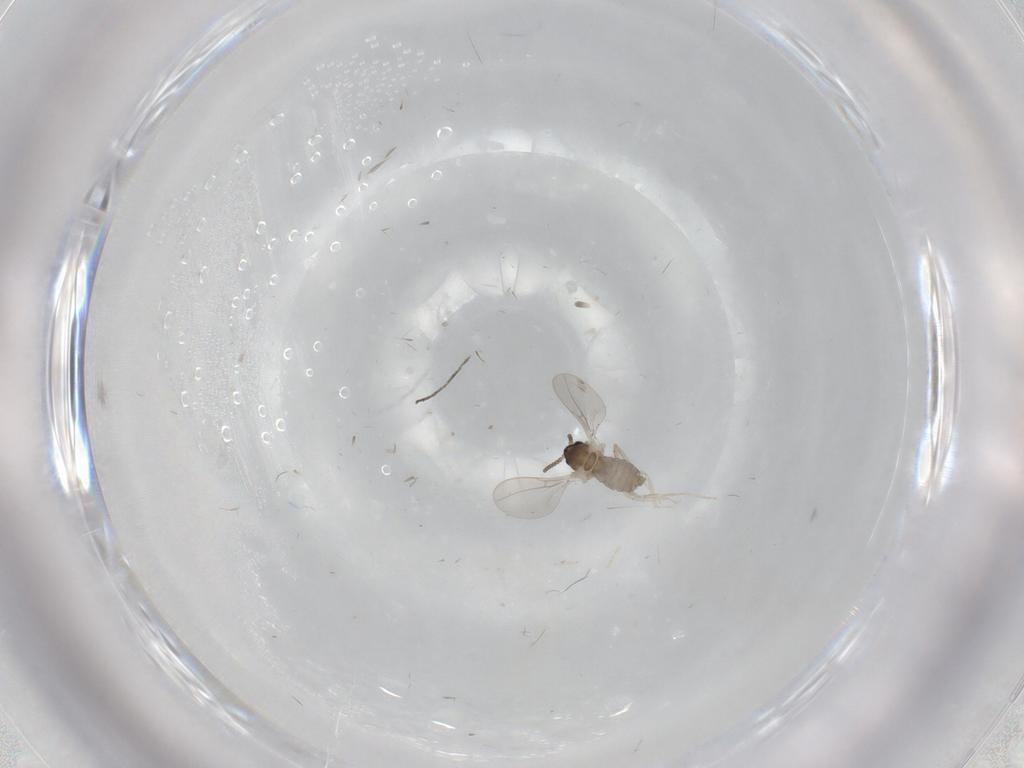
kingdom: Animalia
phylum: Arthropoda
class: Insecta
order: Diptera
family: Cecidomyiidae
